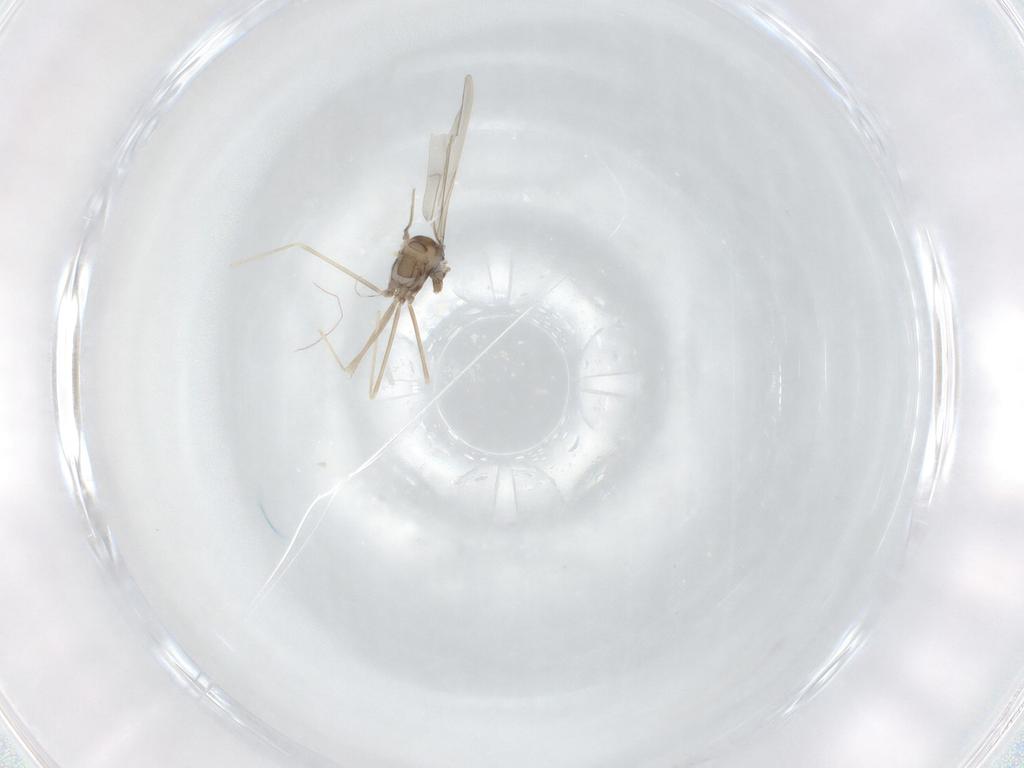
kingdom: Animalia
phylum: Arthropoda
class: Insecta
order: Diptera
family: Cecidomyiidae
